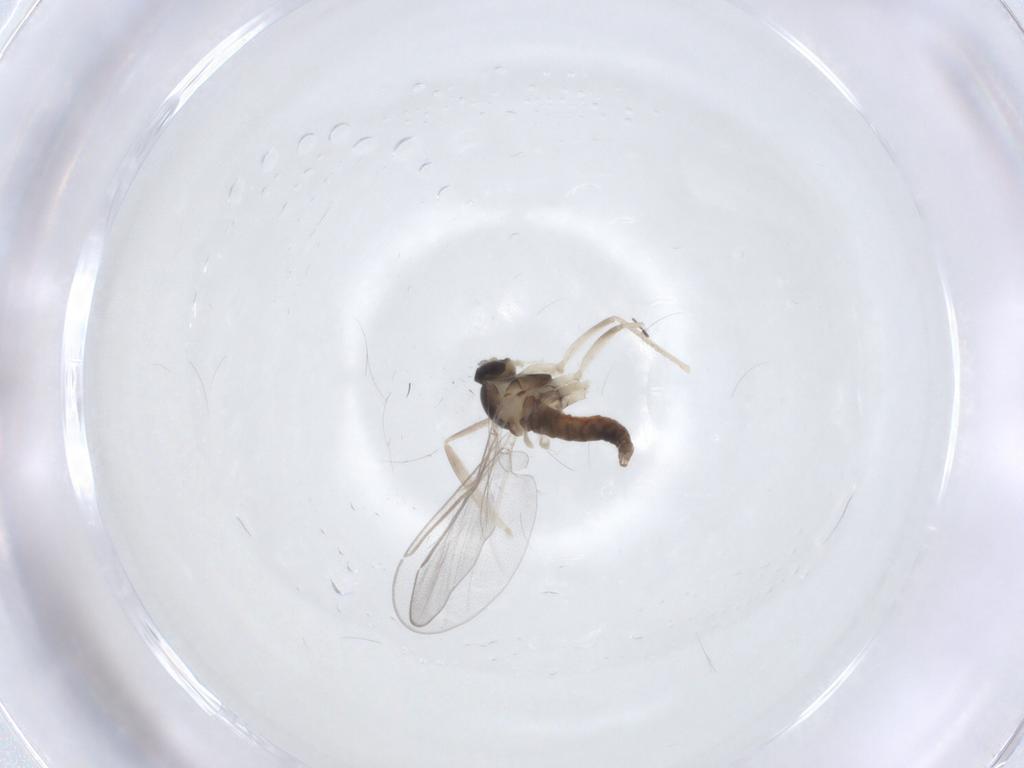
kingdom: Animalia
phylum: Arthropoda
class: Insecta
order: Diptera
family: Cecidomyiidae
